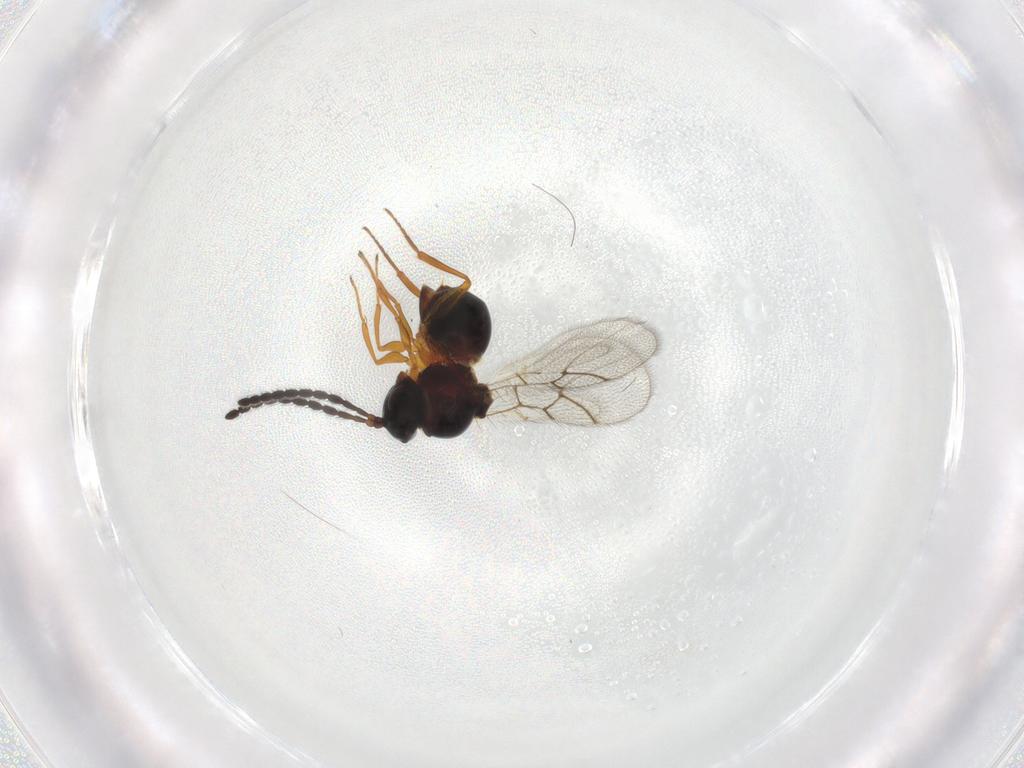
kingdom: Animalia
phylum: Arthropoda
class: Insecta
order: Hymenoptera
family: Figitidae
